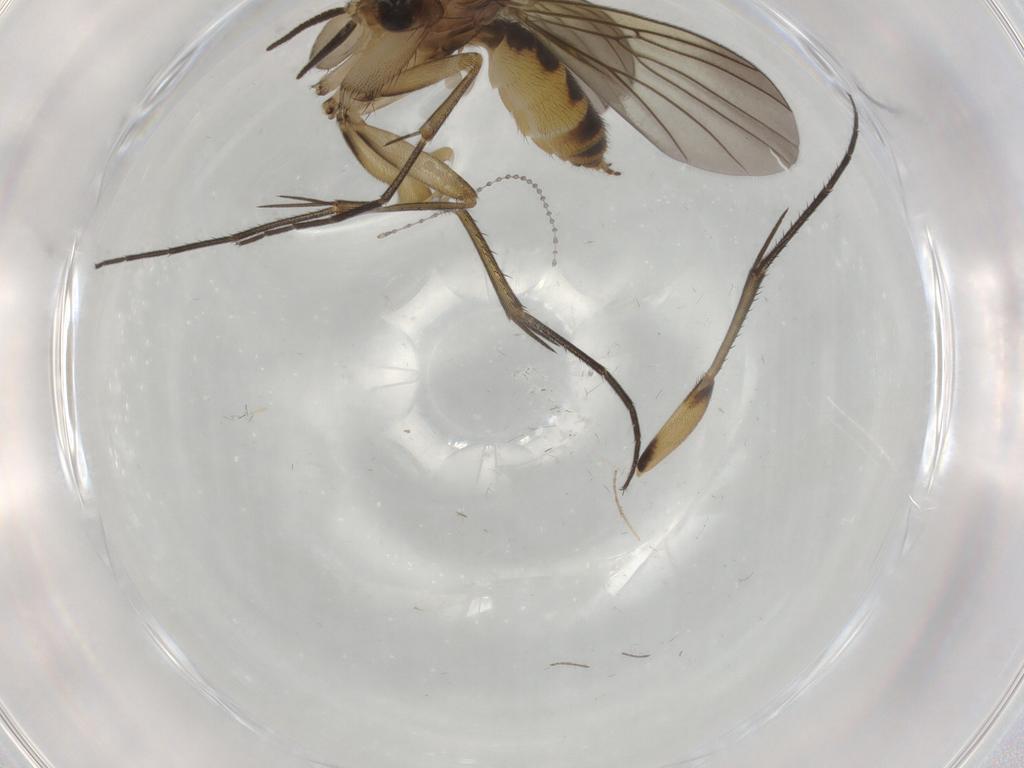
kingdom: Animalia
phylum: Arthropoda
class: Insecta
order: Diptera
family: Mycetophilidae
